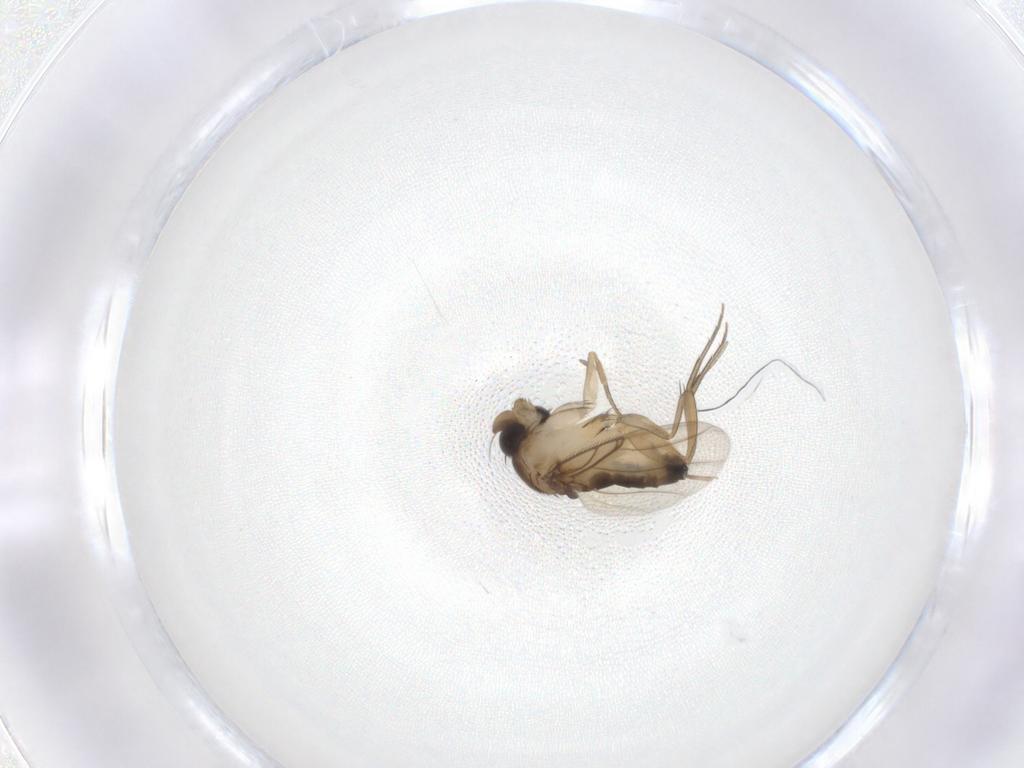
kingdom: Animalia
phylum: Arthropoda
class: Insecta
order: Diptera
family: Phoridae
